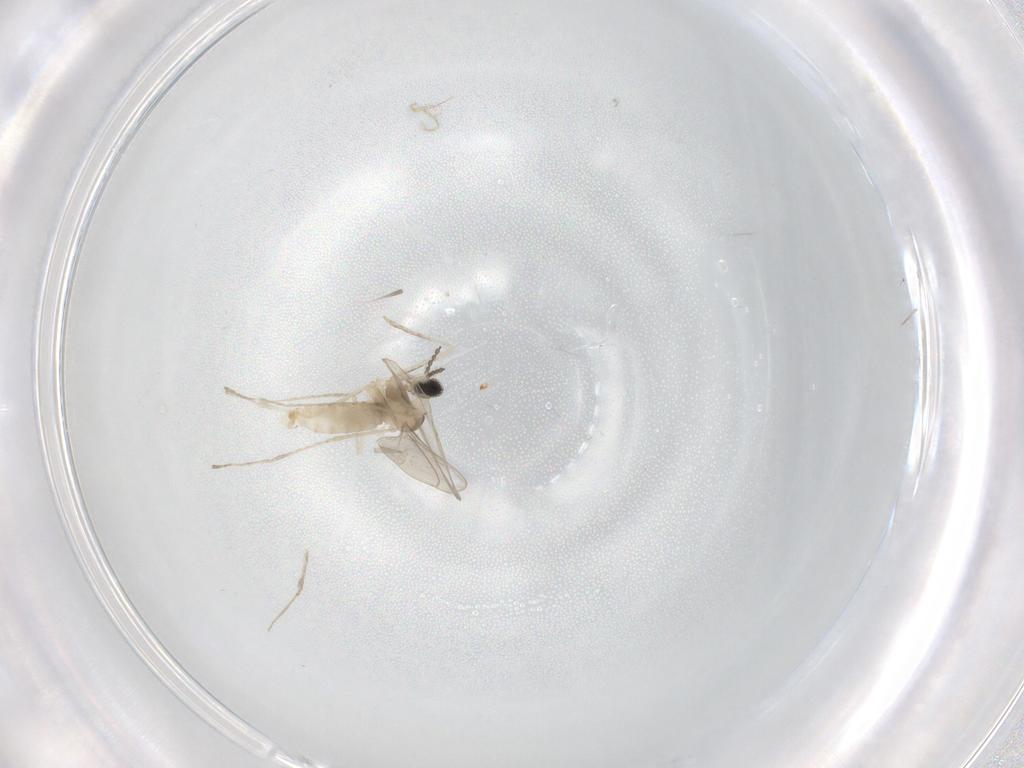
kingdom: Animalia
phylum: Arthropoda
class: Insecta
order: Diptera
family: Cecidomyiidae
